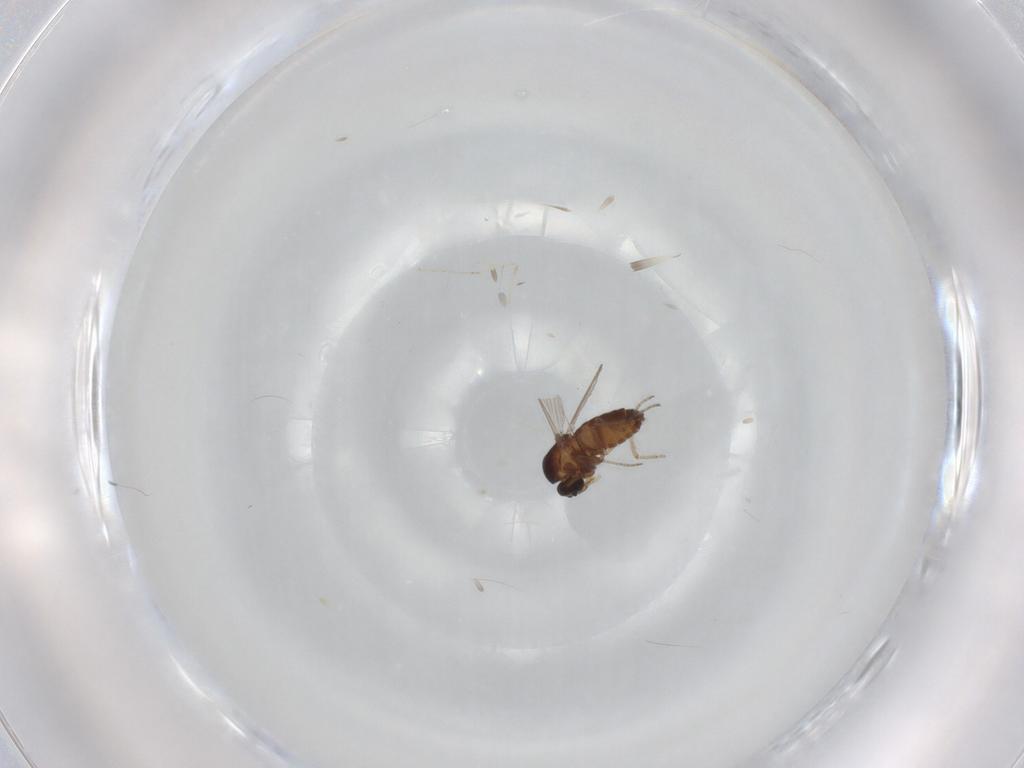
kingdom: Animalia
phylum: Arthropoda
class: Insecta
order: Diptera
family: Ceratopogonidae
